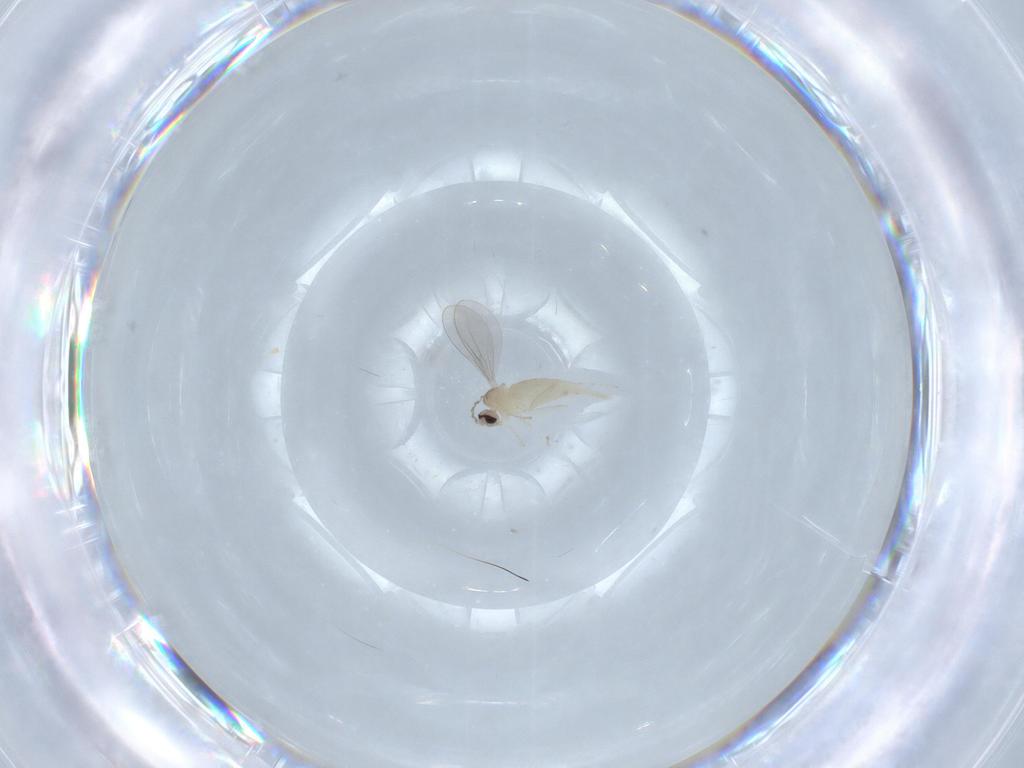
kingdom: Animalia
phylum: Arthropoda
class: Insecta
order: Diptera
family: Cecidomyiidae
